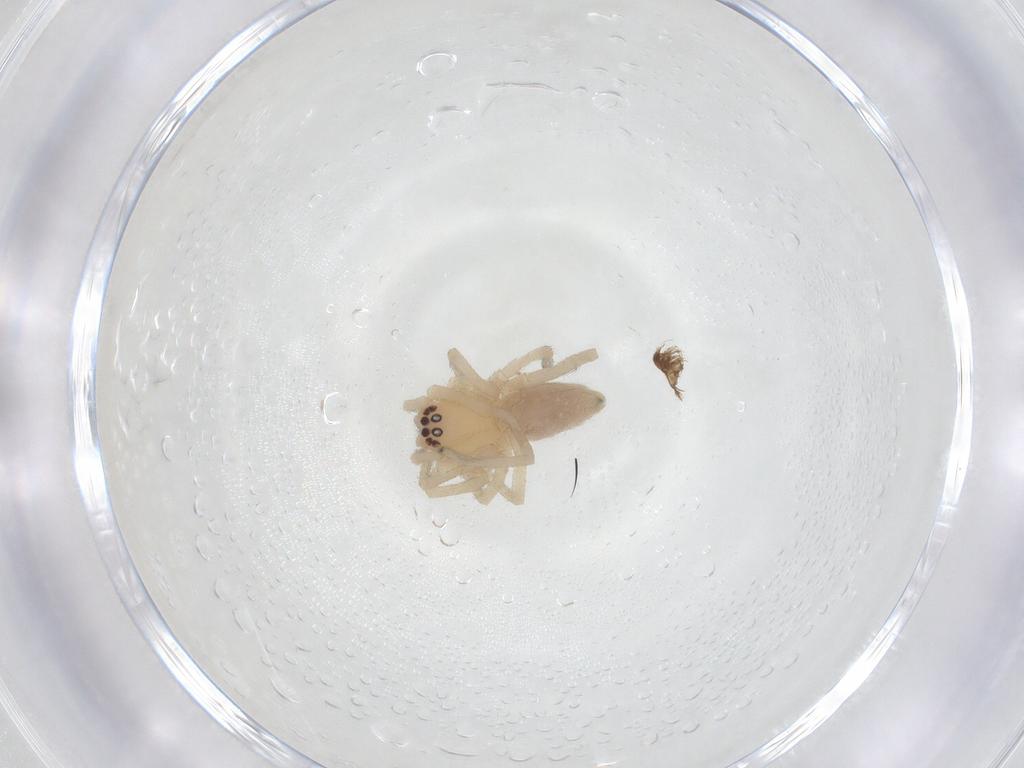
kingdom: Animalia
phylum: Arthropoda
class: Arachnida
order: Araneae
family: Cheiracanthiidae
